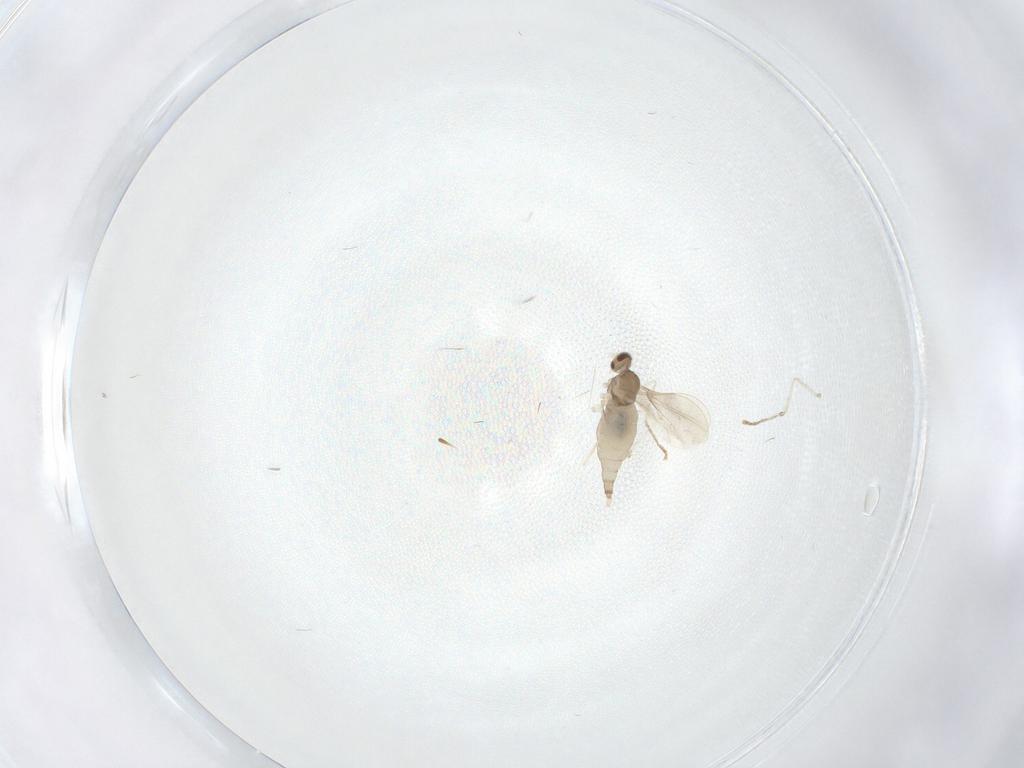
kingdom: Animalia
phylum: Arthropoda
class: Insecta
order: Diptera
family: Cecidomyiidae
